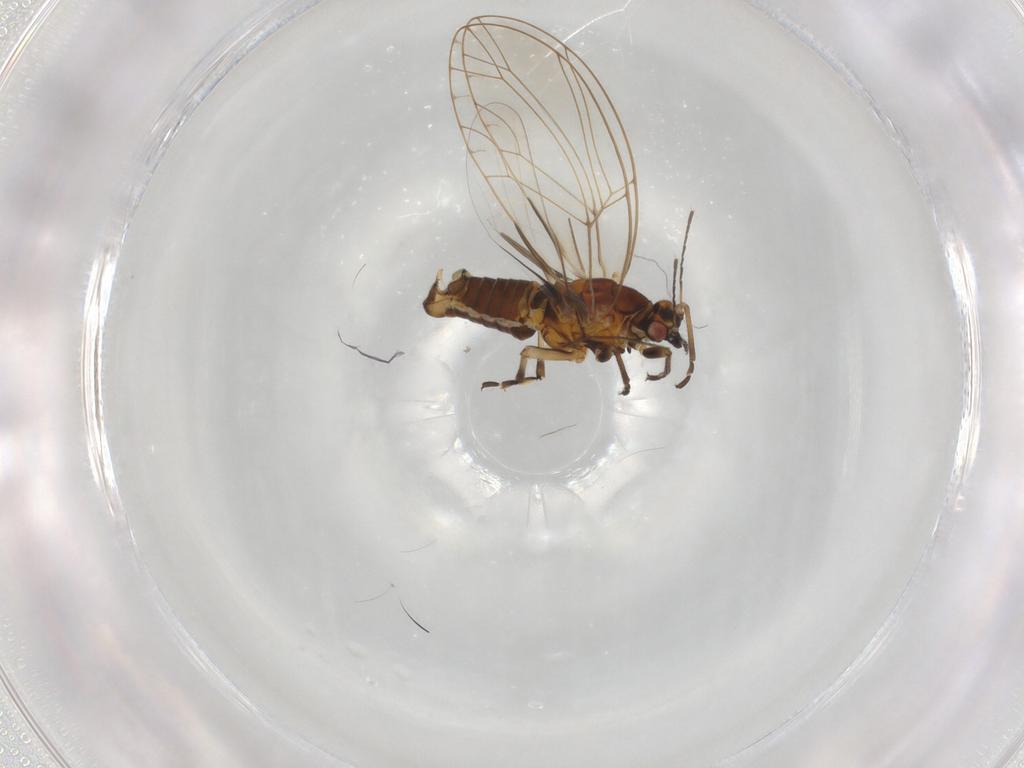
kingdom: Animalia
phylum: Arthropoda
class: Insecta
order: Hemiptera
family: Triozidae
